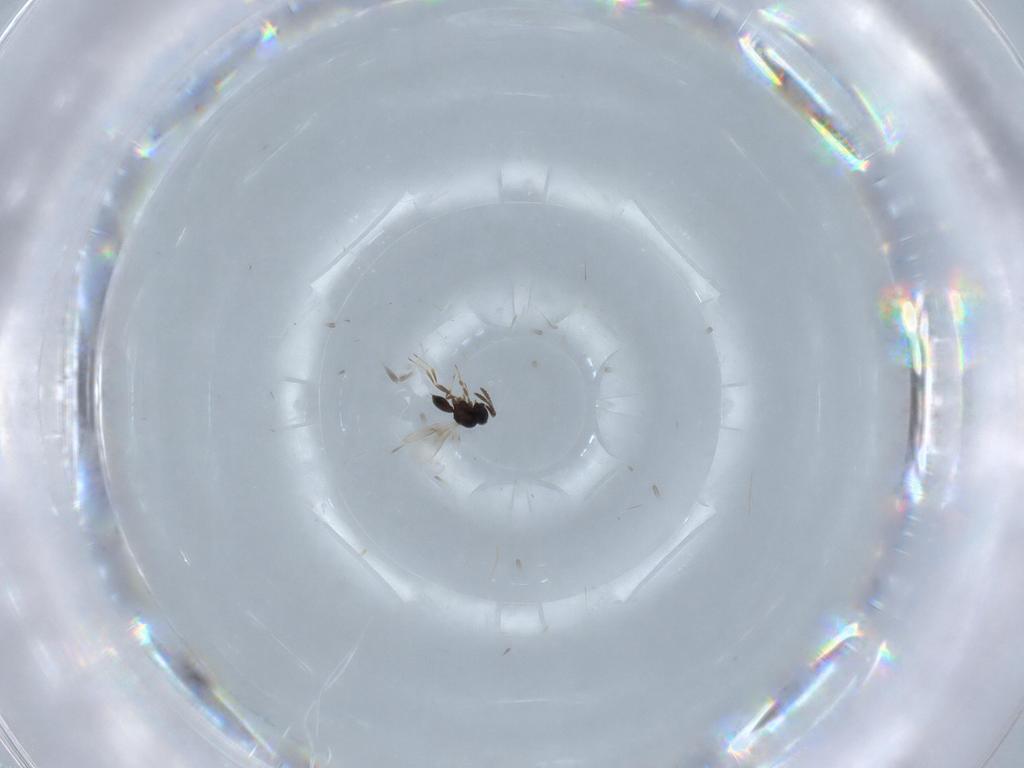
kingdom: Animalia
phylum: Arthropoda
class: Insecta
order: Hymenoptera
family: Scelionidae
